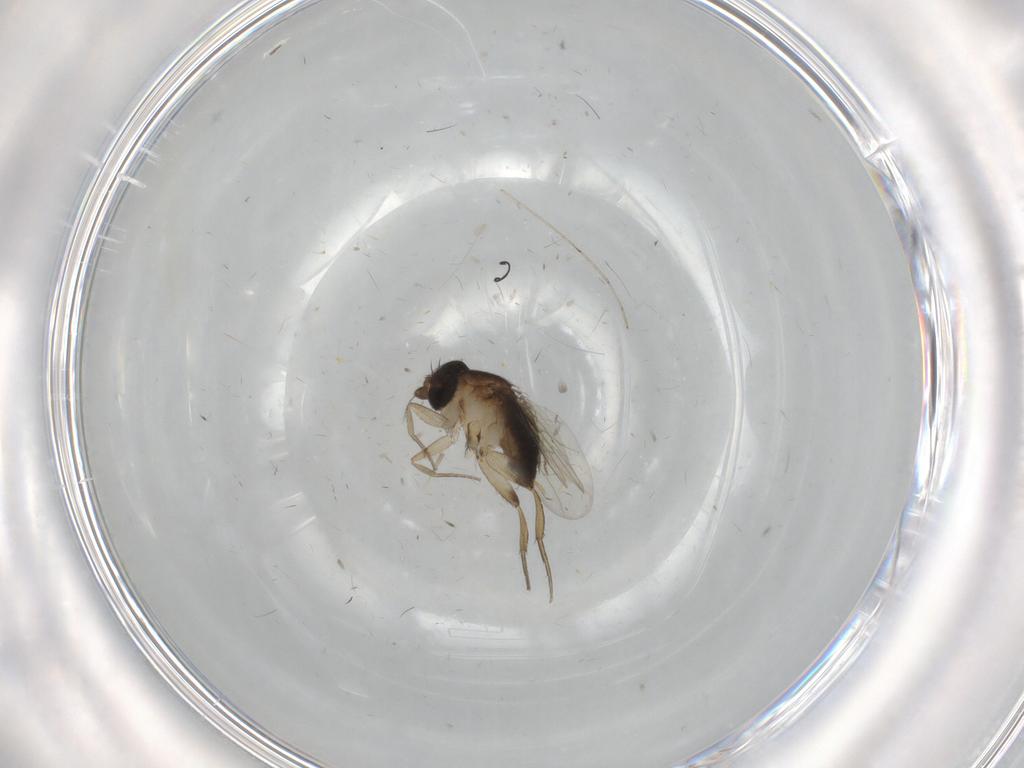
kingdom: Animalia
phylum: Arthropoda
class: Insecta
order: Diptera
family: Phoridae
